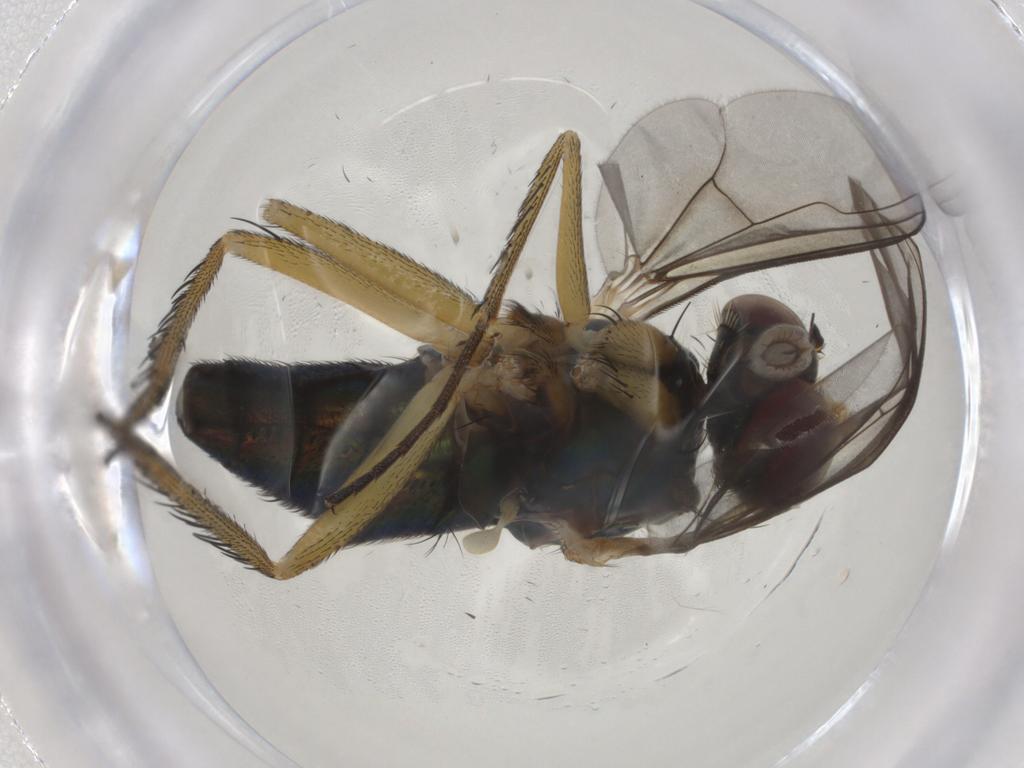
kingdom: Animalia
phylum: Arthropoda
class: Insecta
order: Diptera
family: Dolichopodidae
